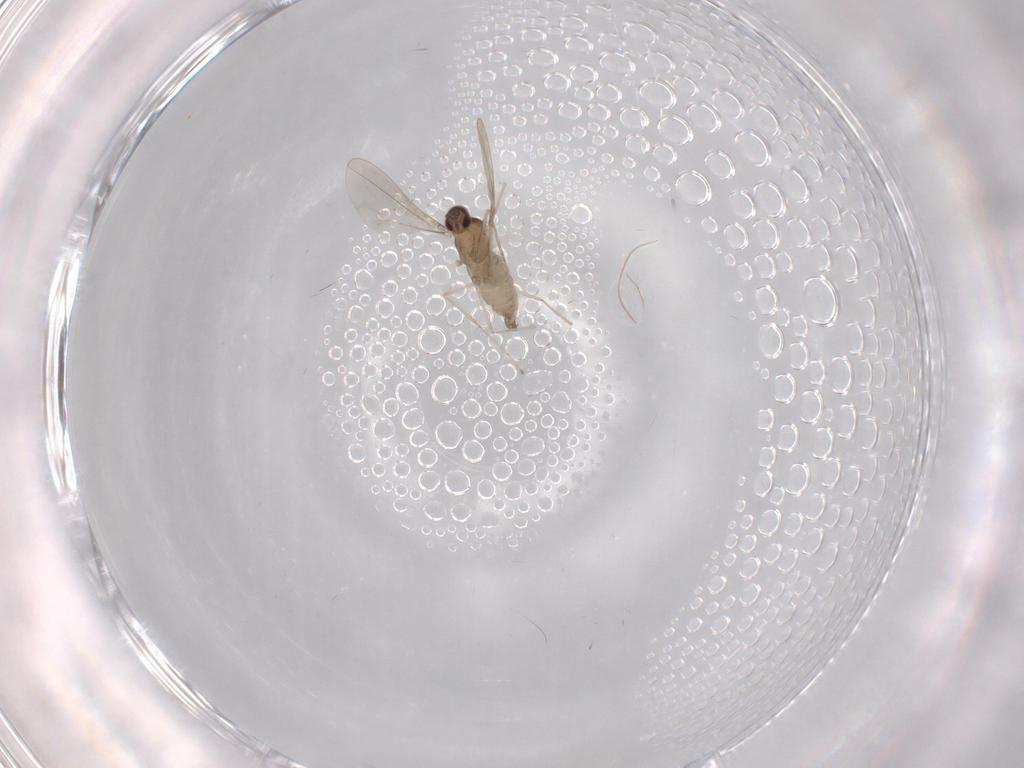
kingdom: Animalia
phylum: Arthropoda
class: Insecta
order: Diptera
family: Cecidomyiidae
